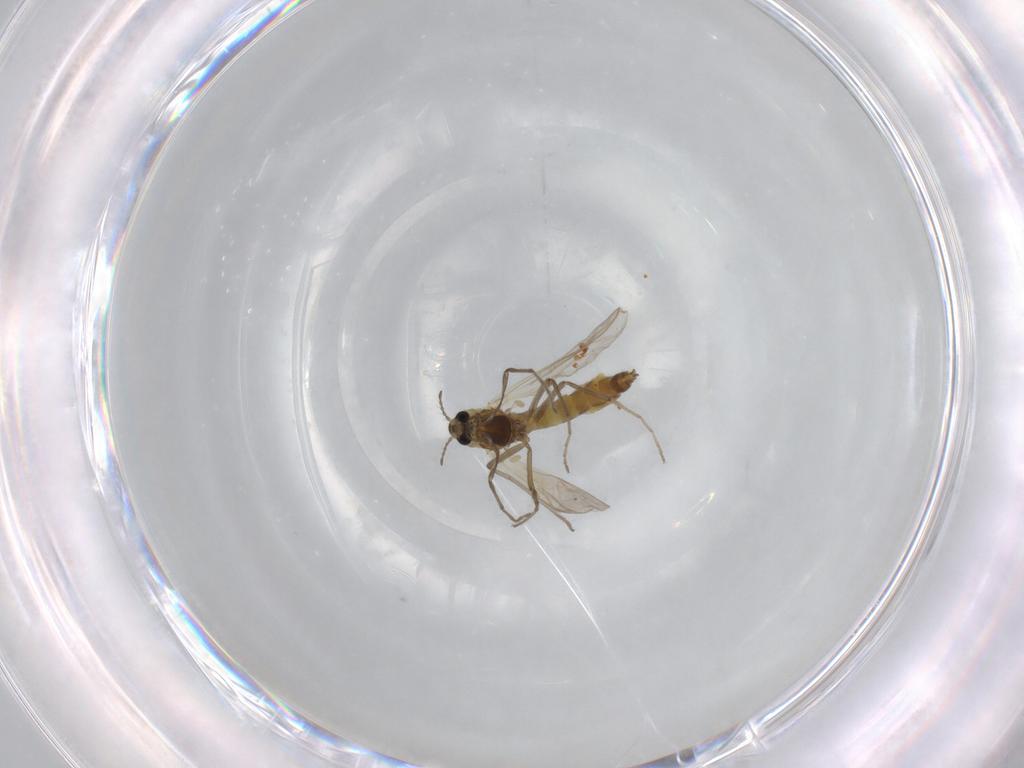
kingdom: Animalia
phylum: Arthropoda
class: Insecta
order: Diptera
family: Chironomidae
